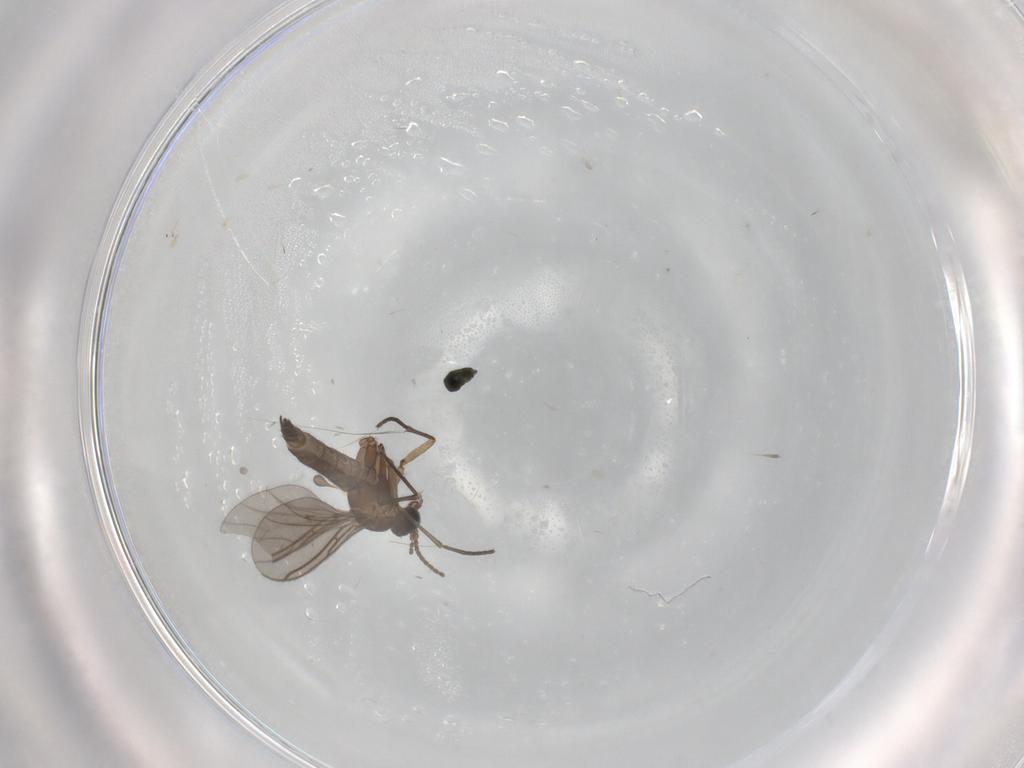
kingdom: Animalia
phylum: Arthropoda
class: Insecta
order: Diptera
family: Sciaridae
